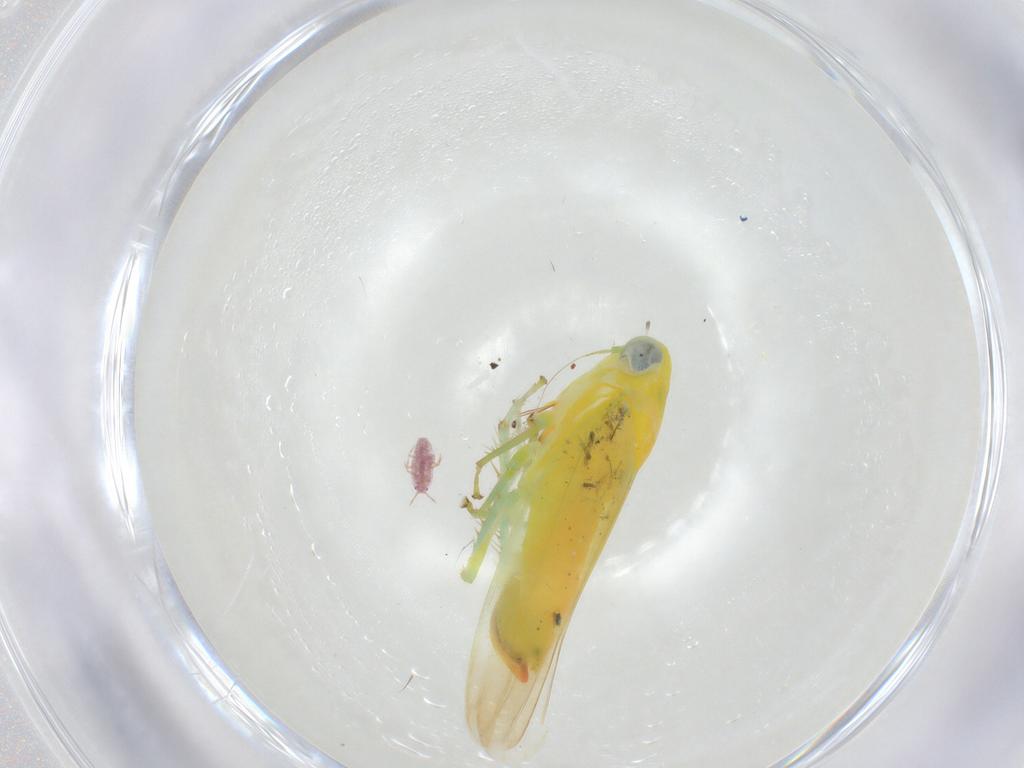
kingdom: Animalia
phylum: Arthropoda
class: Insecta
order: Hemiptera
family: Cicadellidae
